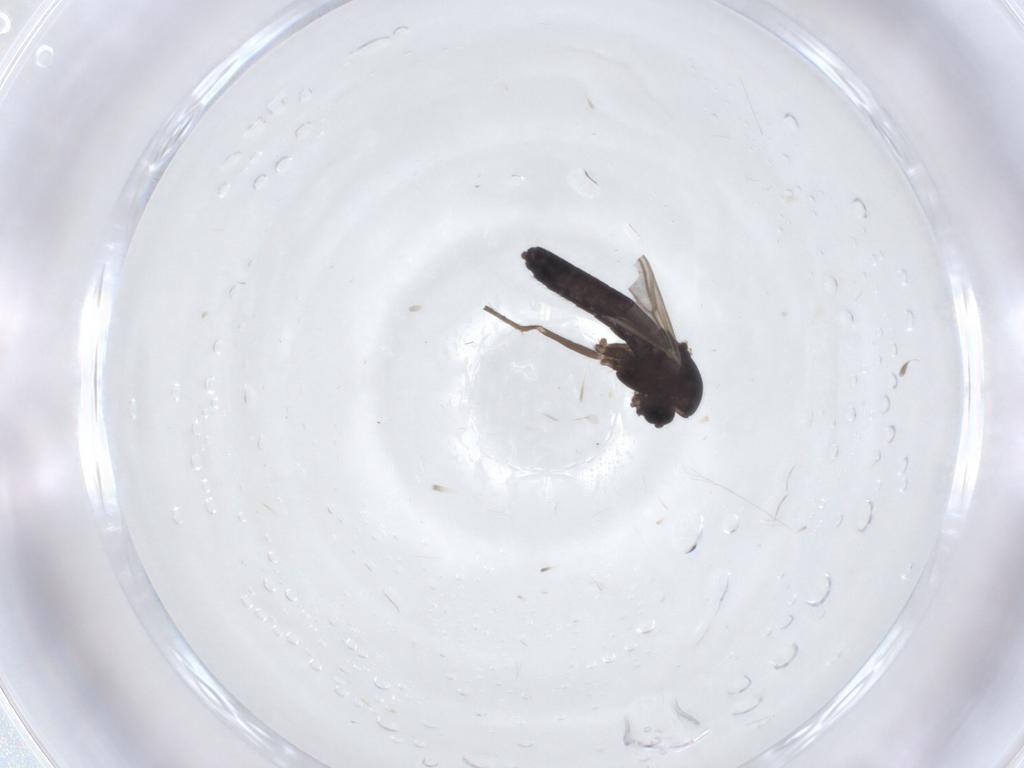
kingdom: Animalia
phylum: Arthropoda
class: Insecta
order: Diptera
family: Chironomidae
